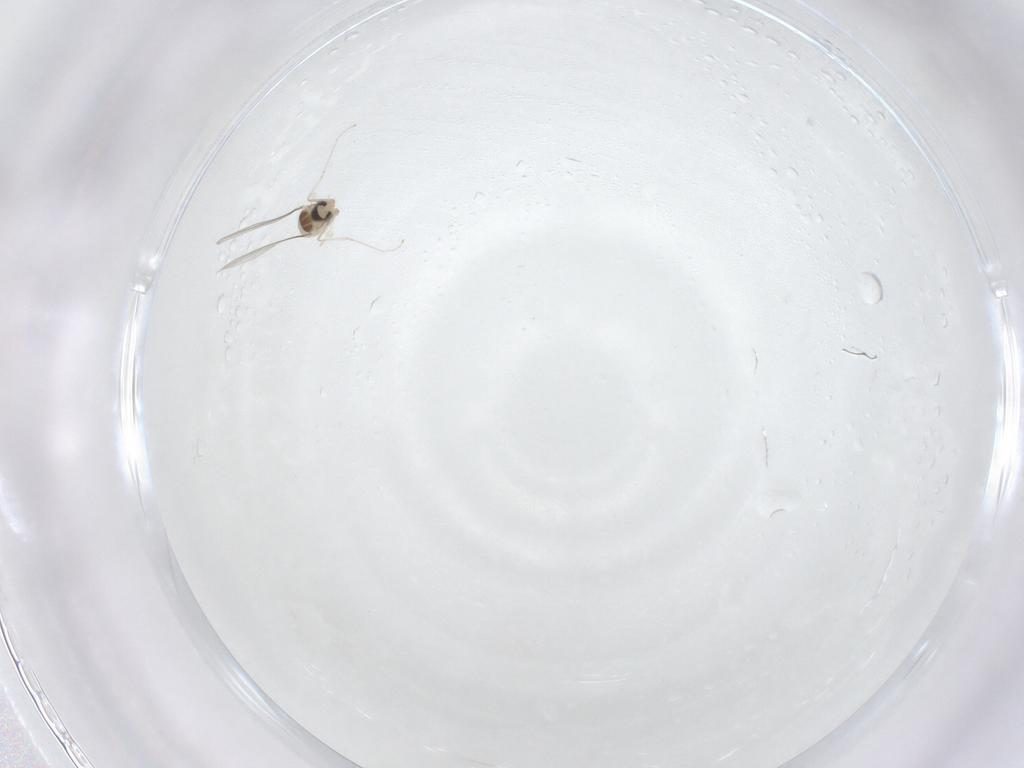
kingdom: Animalia
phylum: Arthropoda
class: Insecta
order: Diptera
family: Cecidomyiidae
